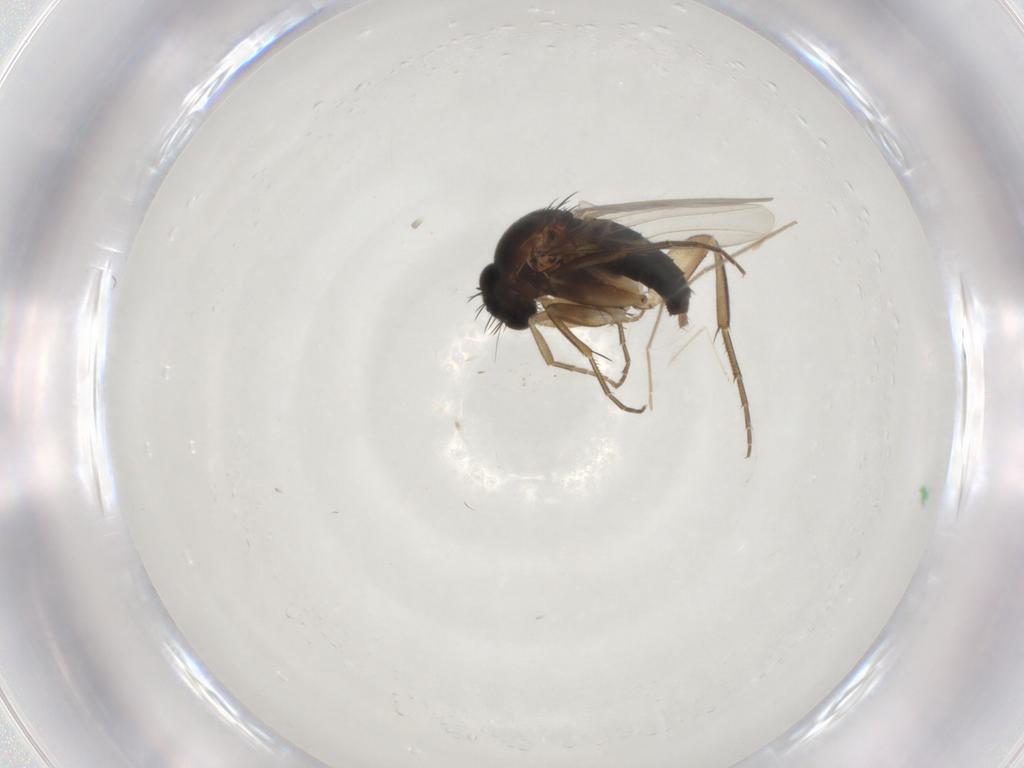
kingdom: Animalia
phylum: Arthropoda
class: Insecta
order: Diptera
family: Phoridae
